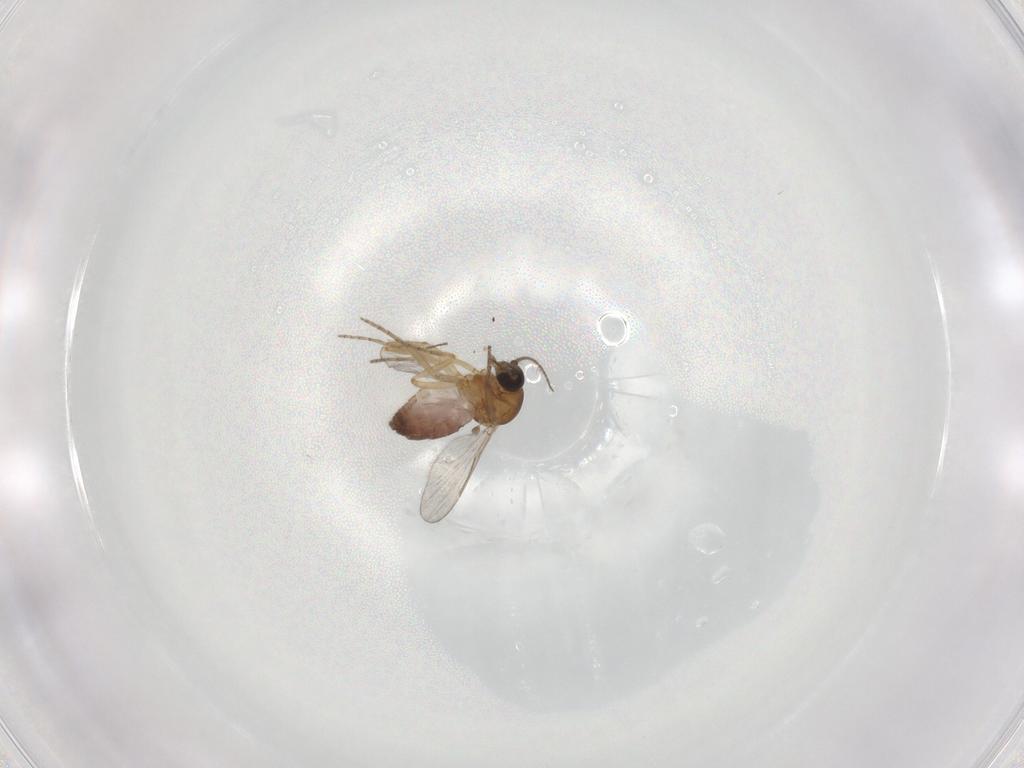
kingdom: Animalia
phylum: Arthropoda
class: Insecta
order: Diptera
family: Ceratopogonidae
